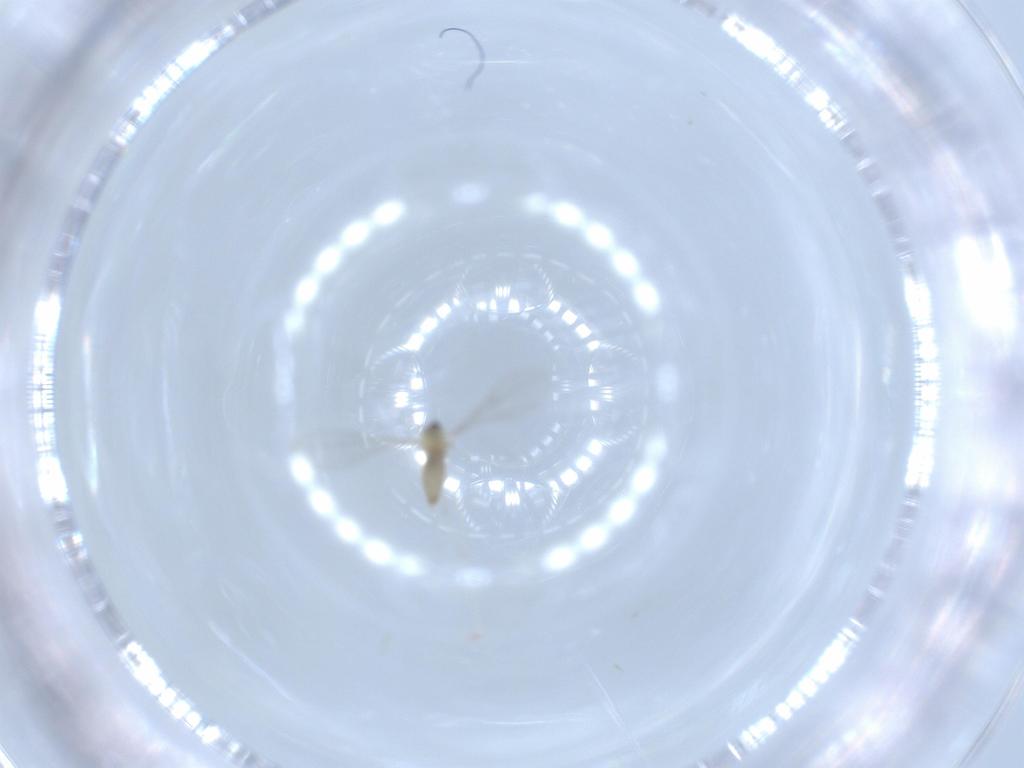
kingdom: Animalia
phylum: Arthropoda
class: Insecta
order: Diptera
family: Cecidomyiidae
